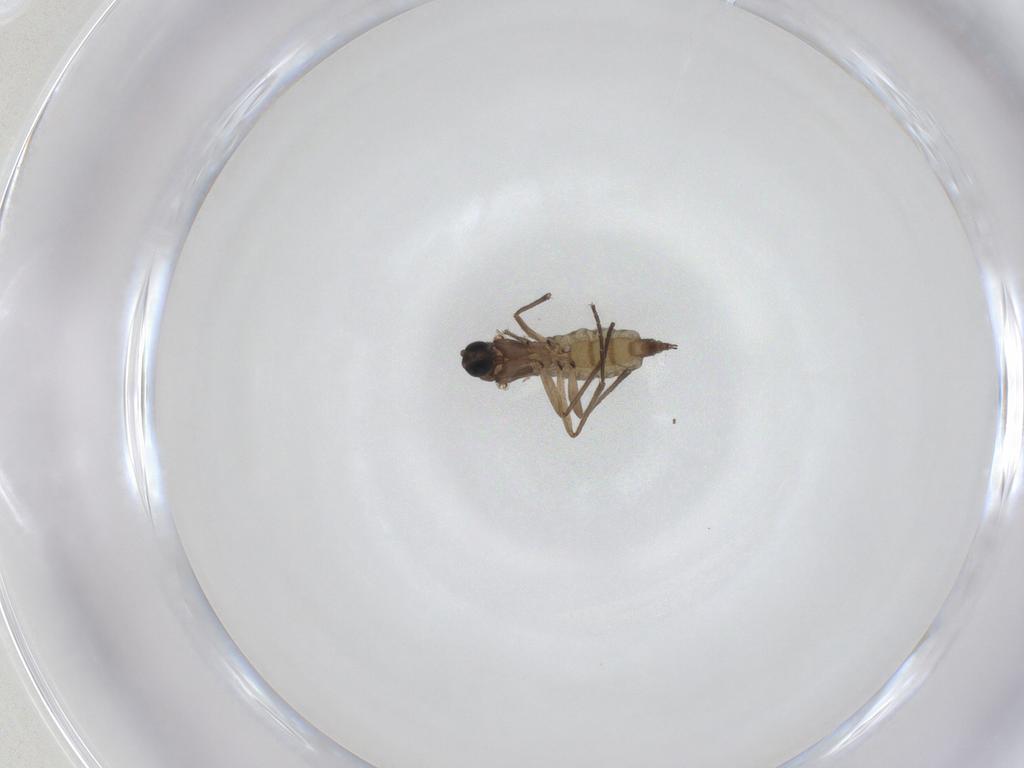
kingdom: Animalia
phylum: Arthropoda
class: Insecta
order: Diptera
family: Sciaridae
